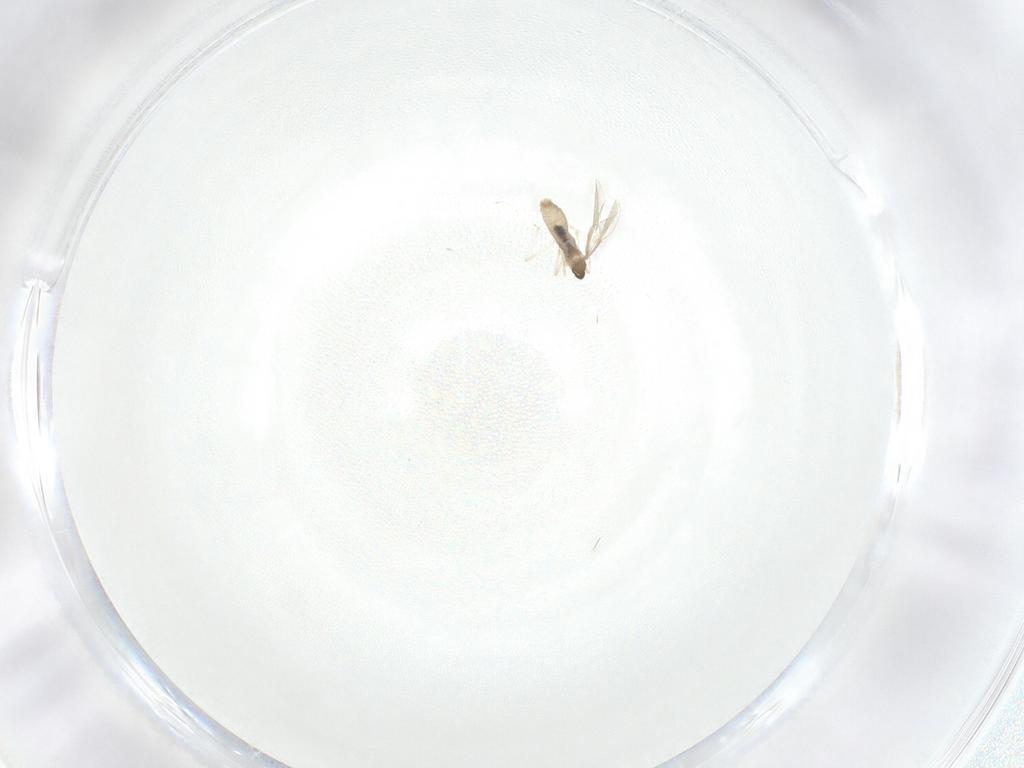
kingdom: Animalia
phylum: Arthropoda
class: Insecta
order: Diptera
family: Cecidomyiidae
